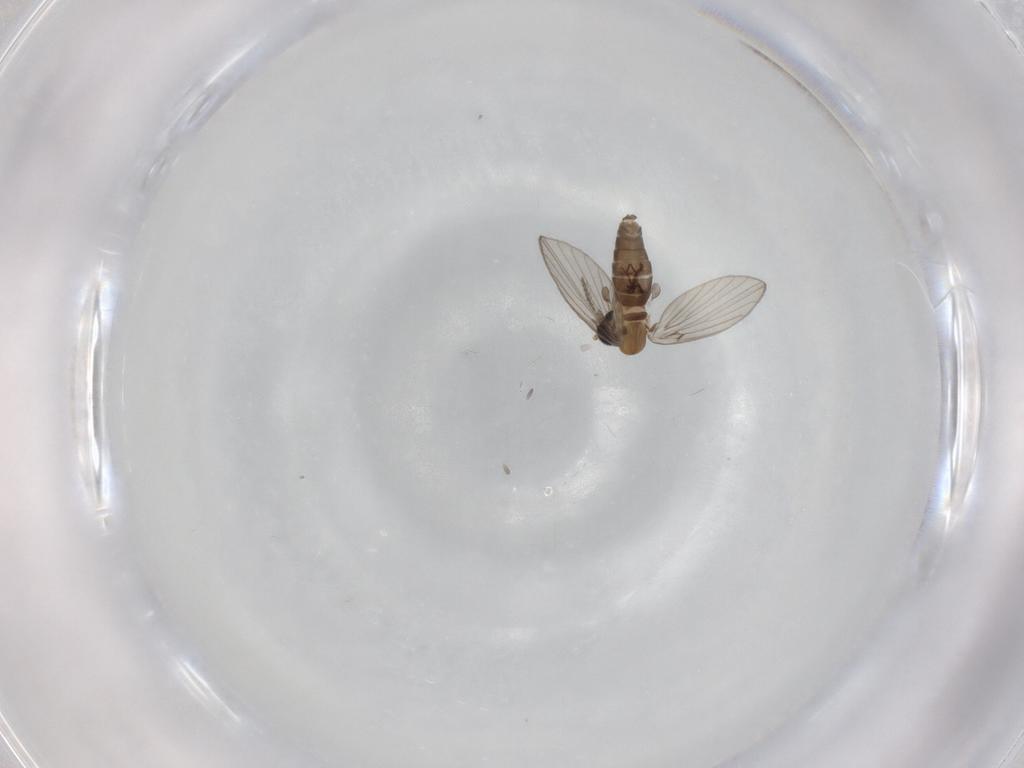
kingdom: Animalia
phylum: Arthropoda
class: Insecta
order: Diptera
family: Psychodidae
